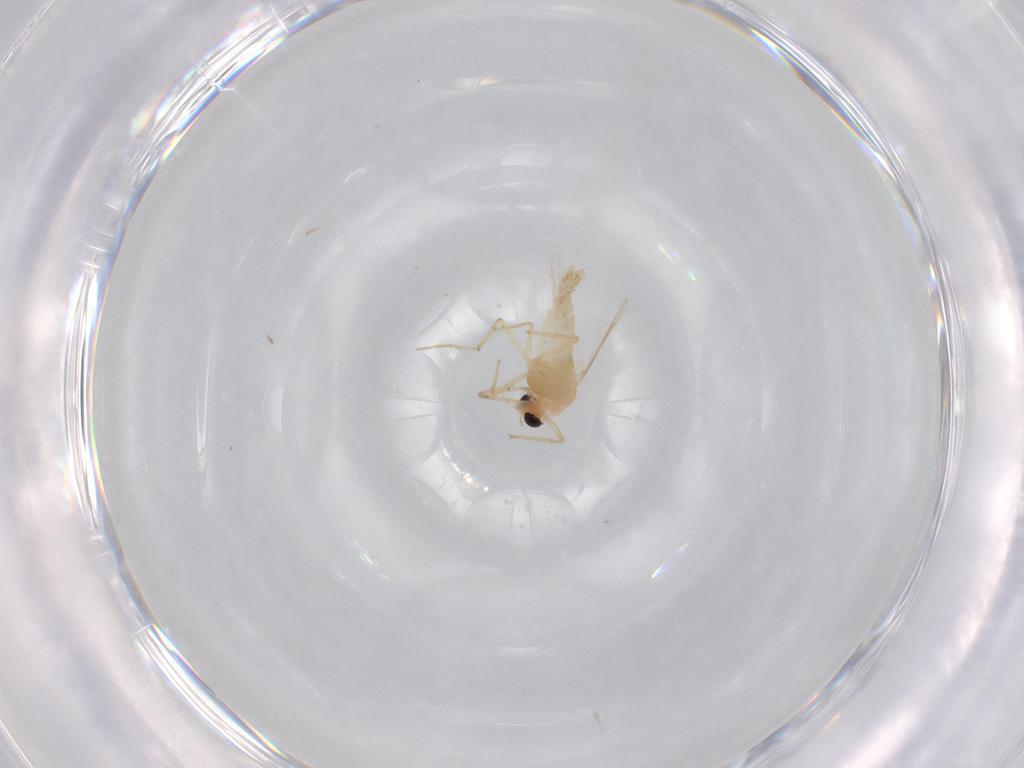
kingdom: Animalia
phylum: Arthropoda
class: Insecta
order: Diptera
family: Chironomidae
